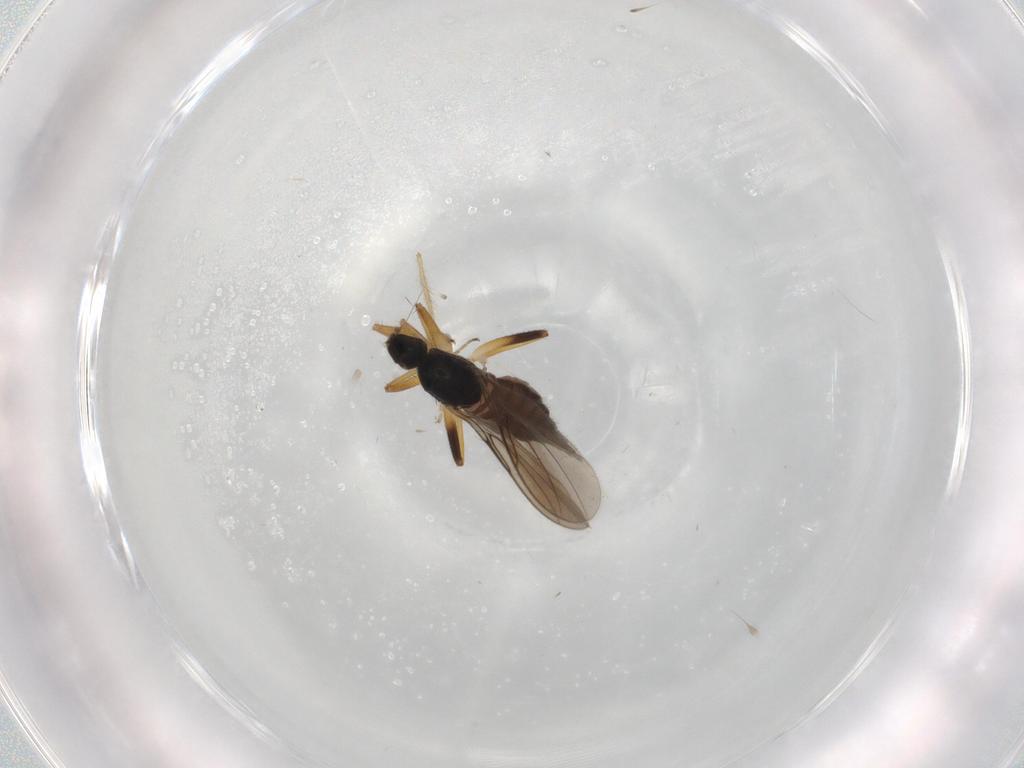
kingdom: Animalia
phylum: Arthropoda
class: Insecta
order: Diptera
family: Hybotidae
